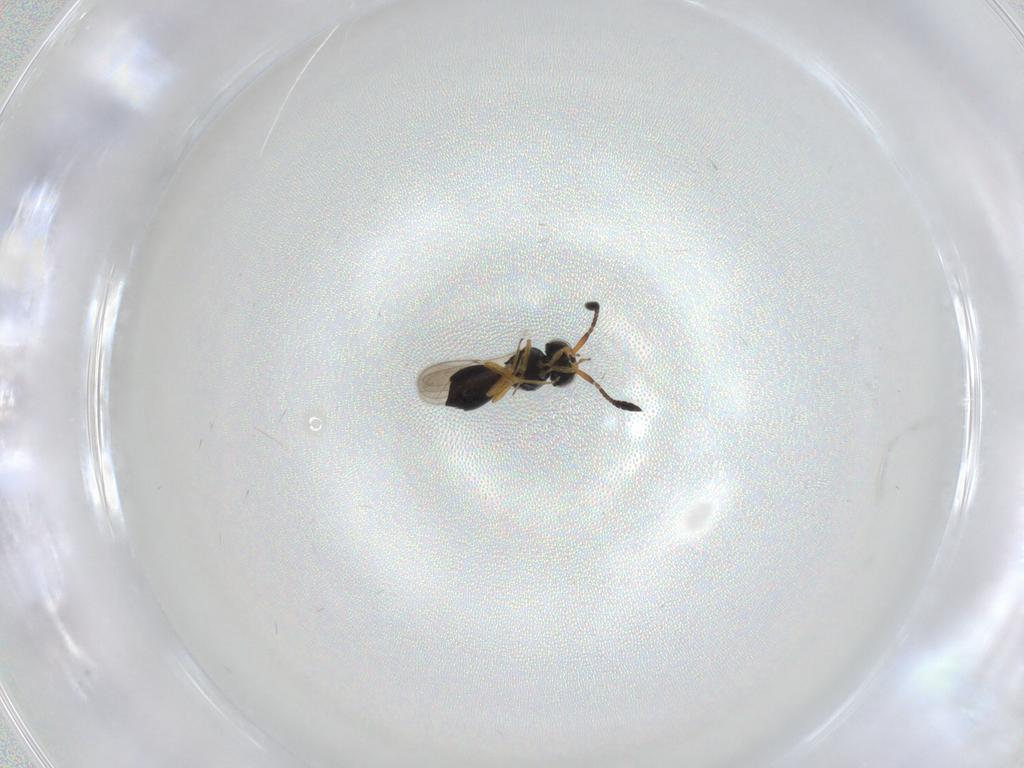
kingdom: Animalia
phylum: Arthropoda
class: Insecta
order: Hymenoptera
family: Scelionidae
